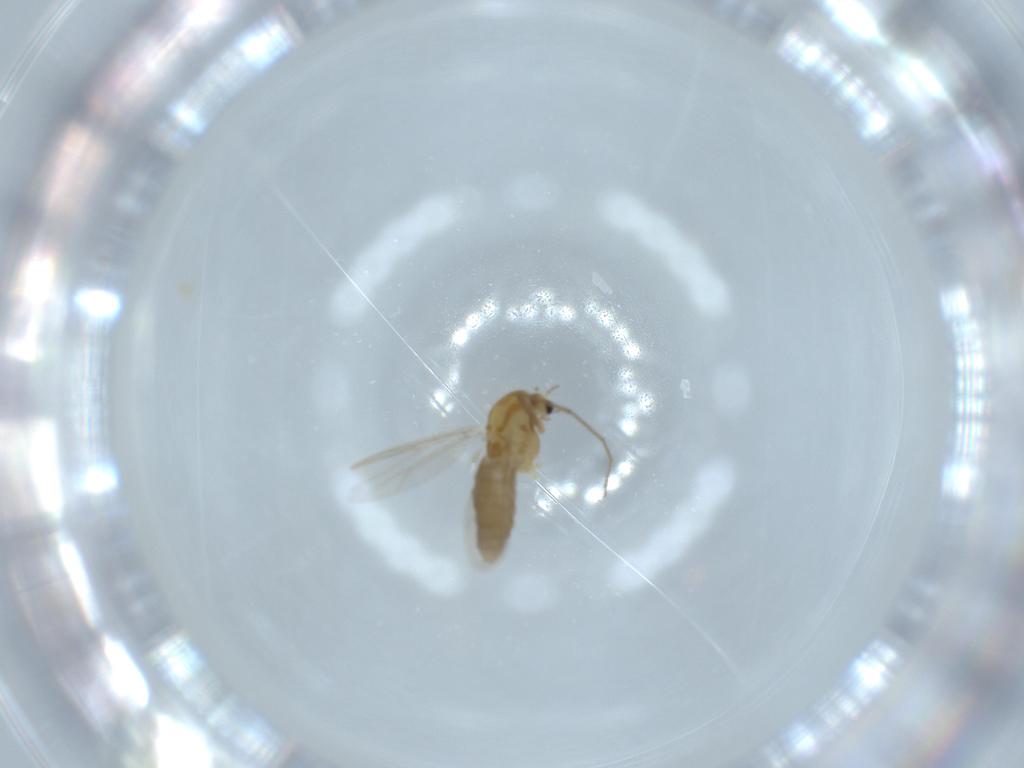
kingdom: Animalia
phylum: Arthropoda
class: Insecta
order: Diptera
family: Chironomidae
